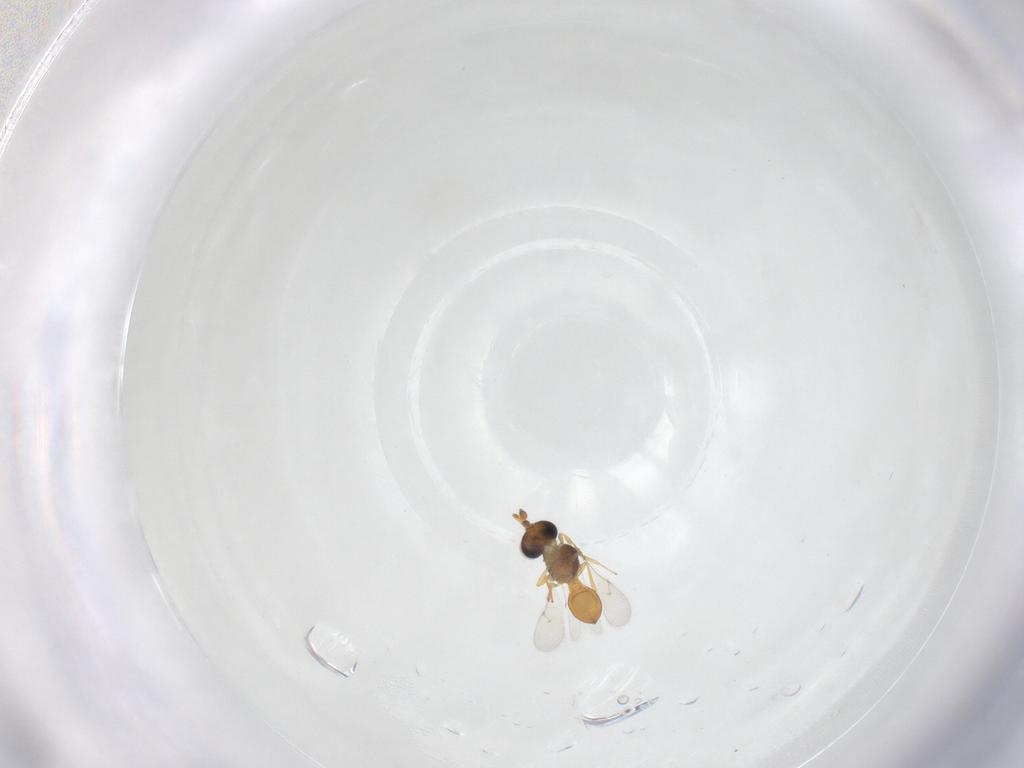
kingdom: Animalia
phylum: Arthropoda
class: Insecta
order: Hymenoptera
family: Scelionidae
